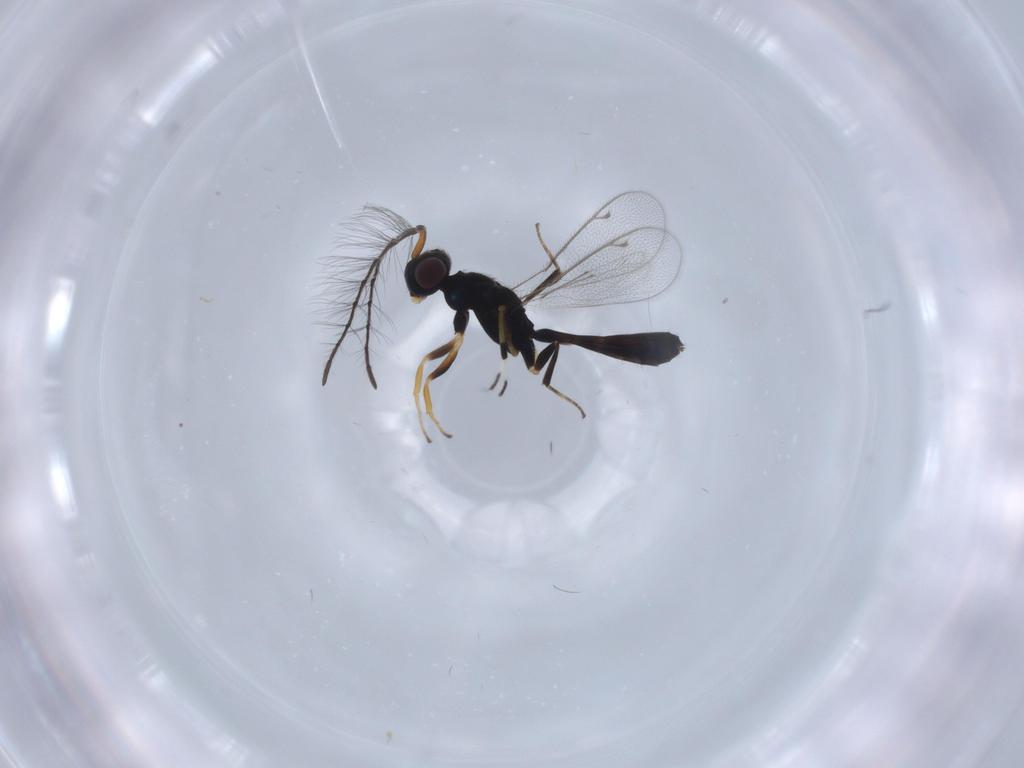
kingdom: Animalia
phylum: Arthropoda
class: Insecta
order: Hymenoptera
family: Eupelmidae
